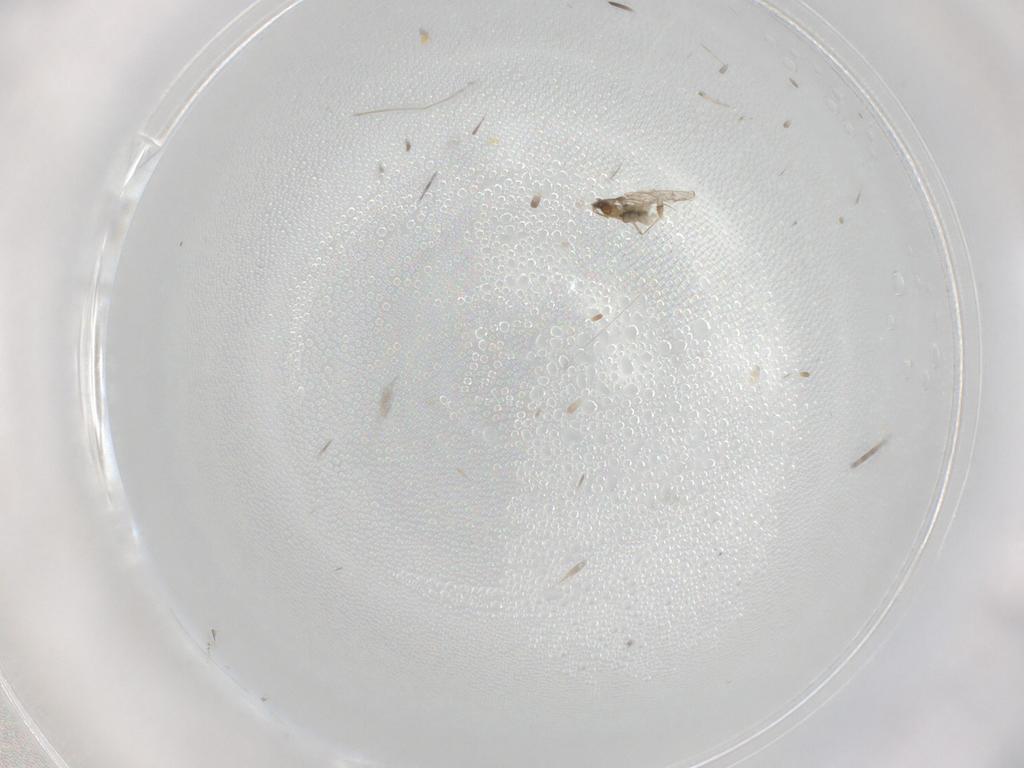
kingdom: Animalia
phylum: Arthropoda
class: Insecta
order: Diptera
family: Cecidomyiidae
